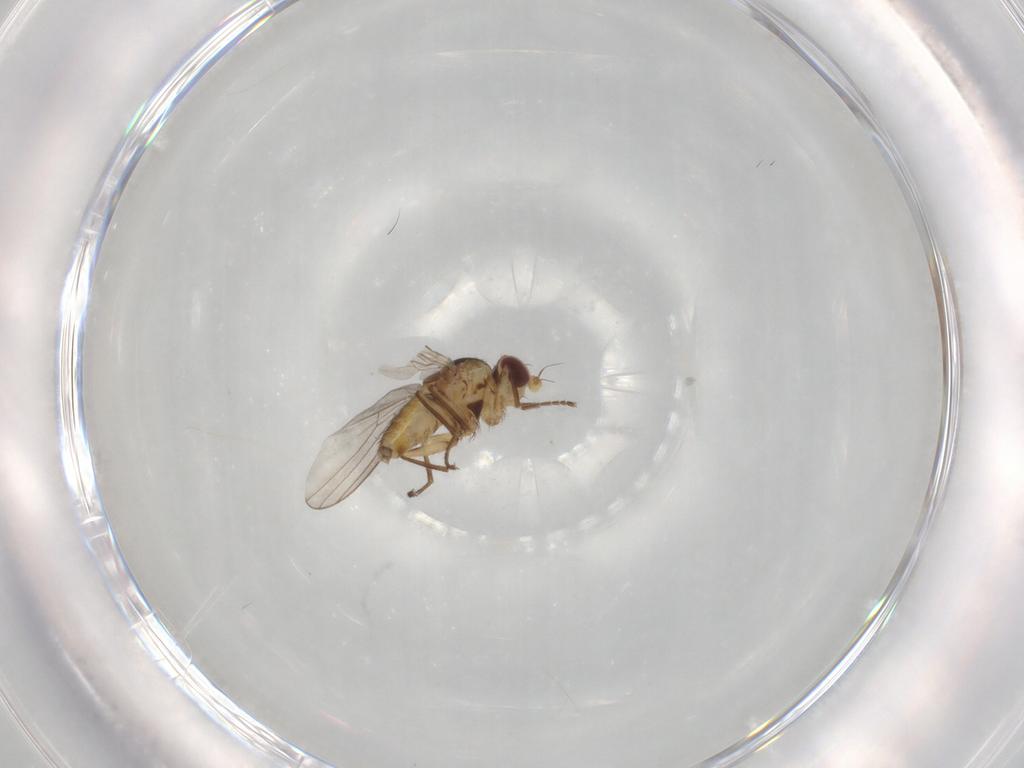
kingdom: Animalia
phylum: Arthropoda
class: Insecta
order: Diptera
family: Agromyzidae
